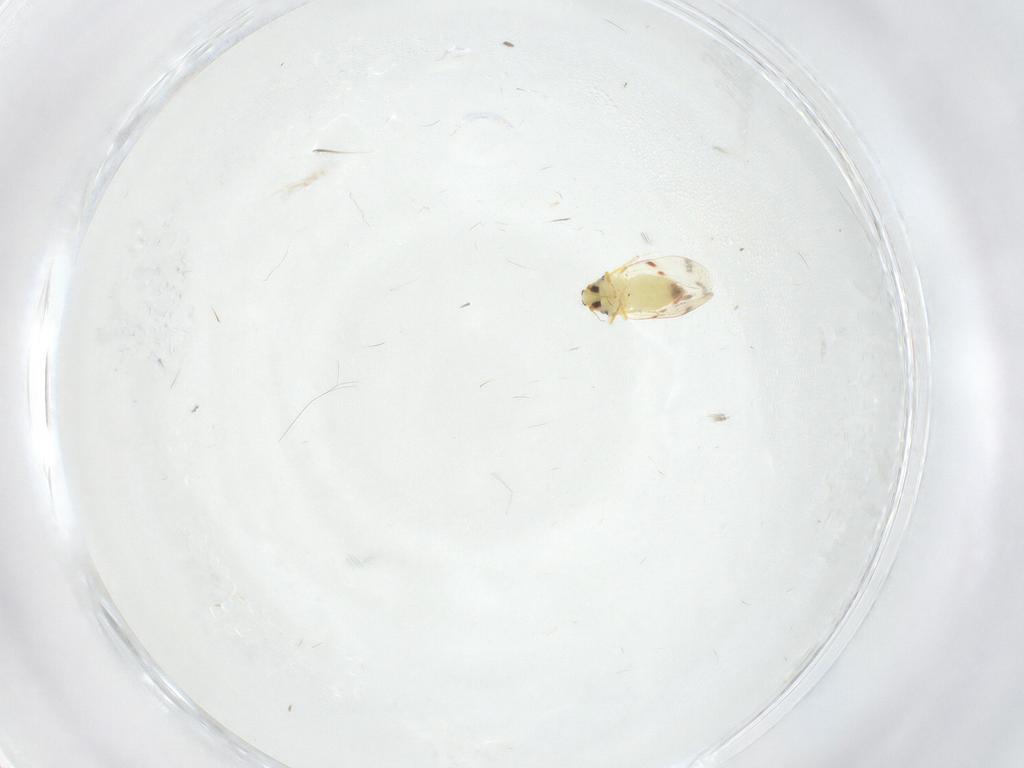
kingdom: Animalia
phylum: Arthropoda
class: Insecta
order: Hemiptera
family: Aleyrodidae
